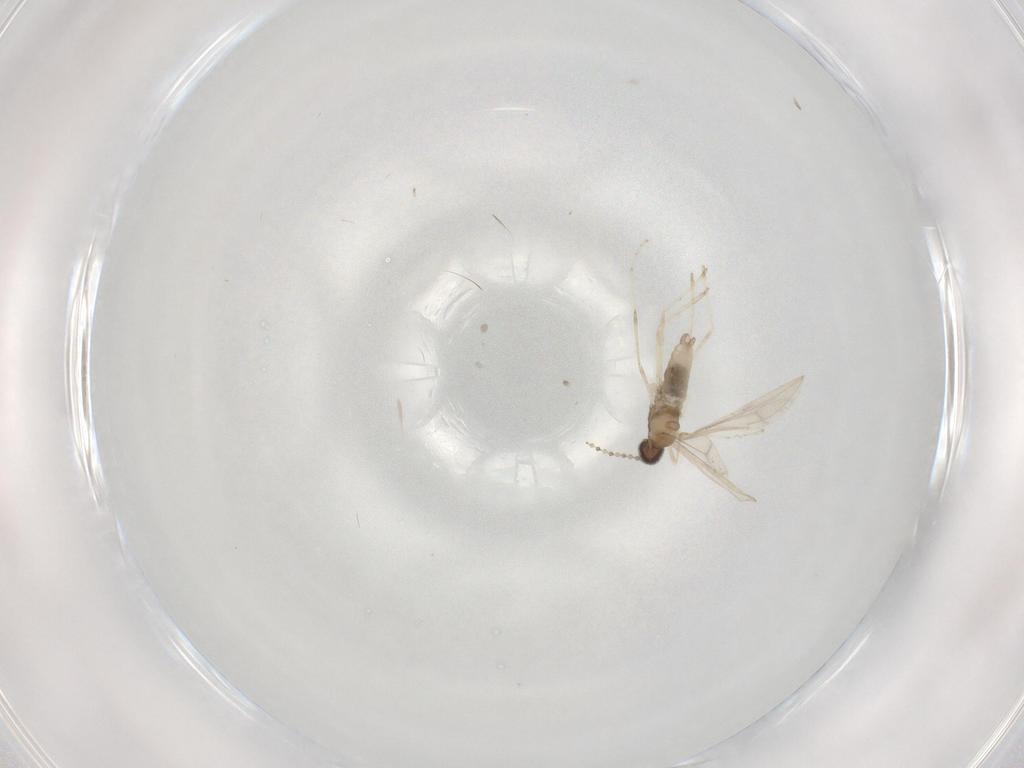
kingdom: Animalia
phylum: Arthropoda
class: Insecta
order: Diptera
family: Cecidomyiidae
